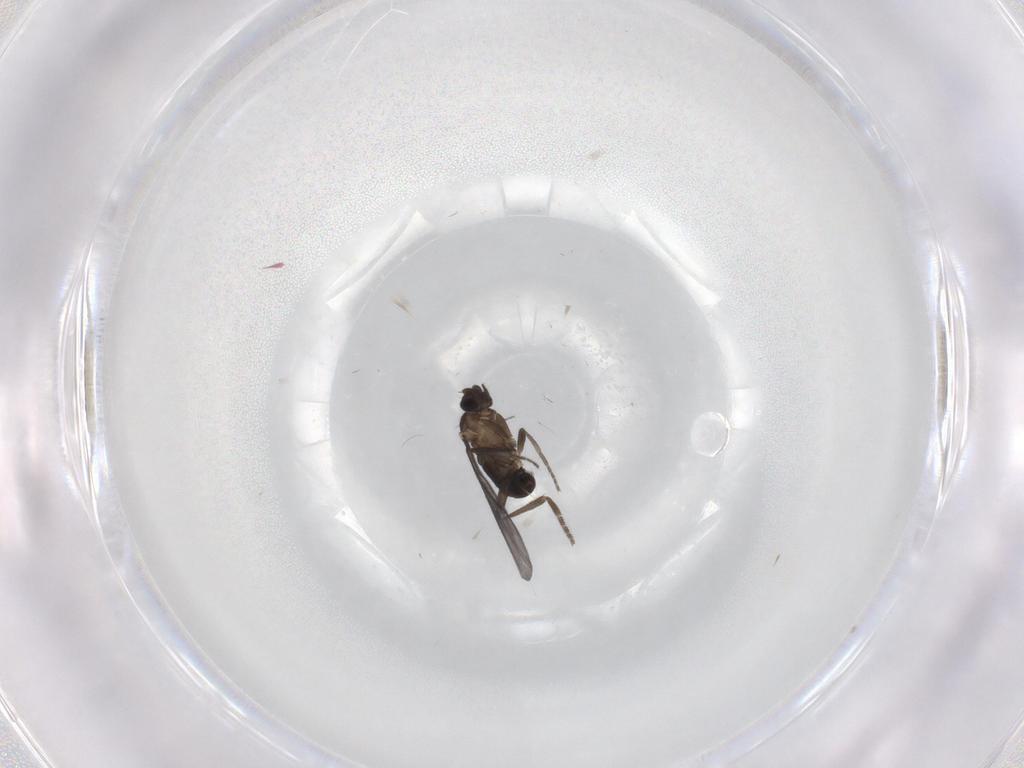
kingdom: Animalia
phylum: Arthropoda
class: Insecta
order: Diptera
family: Phoridae
